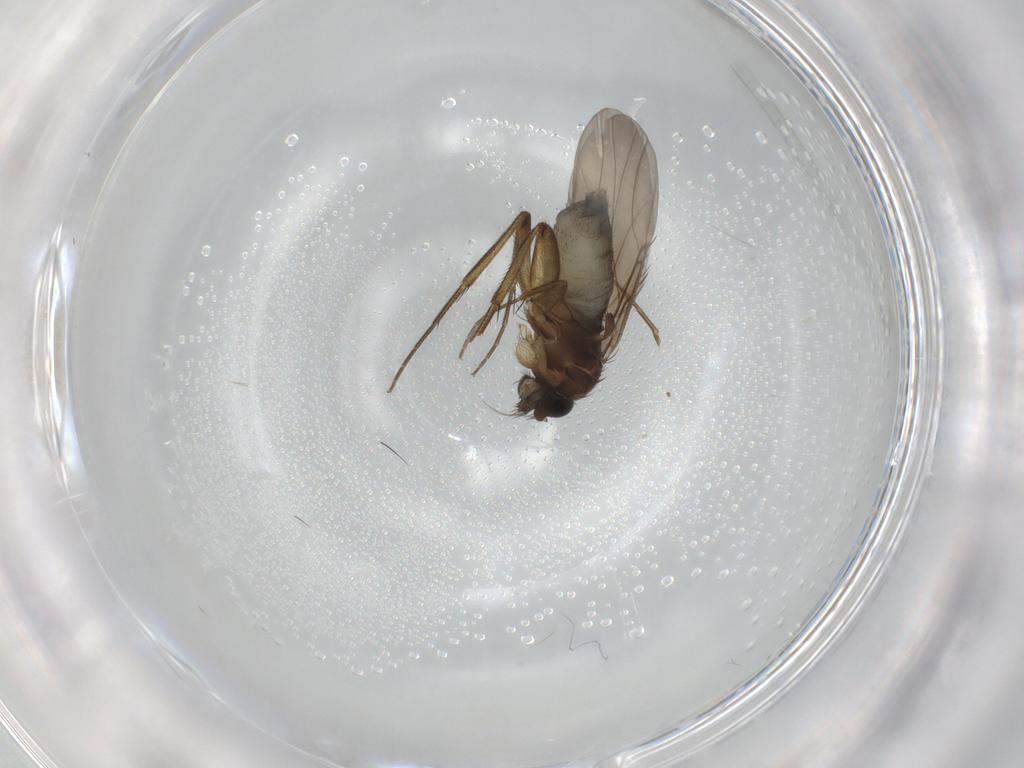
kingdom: Animalia
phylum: Arthropoda
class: Insecta
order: Diptera
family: Phoridae
